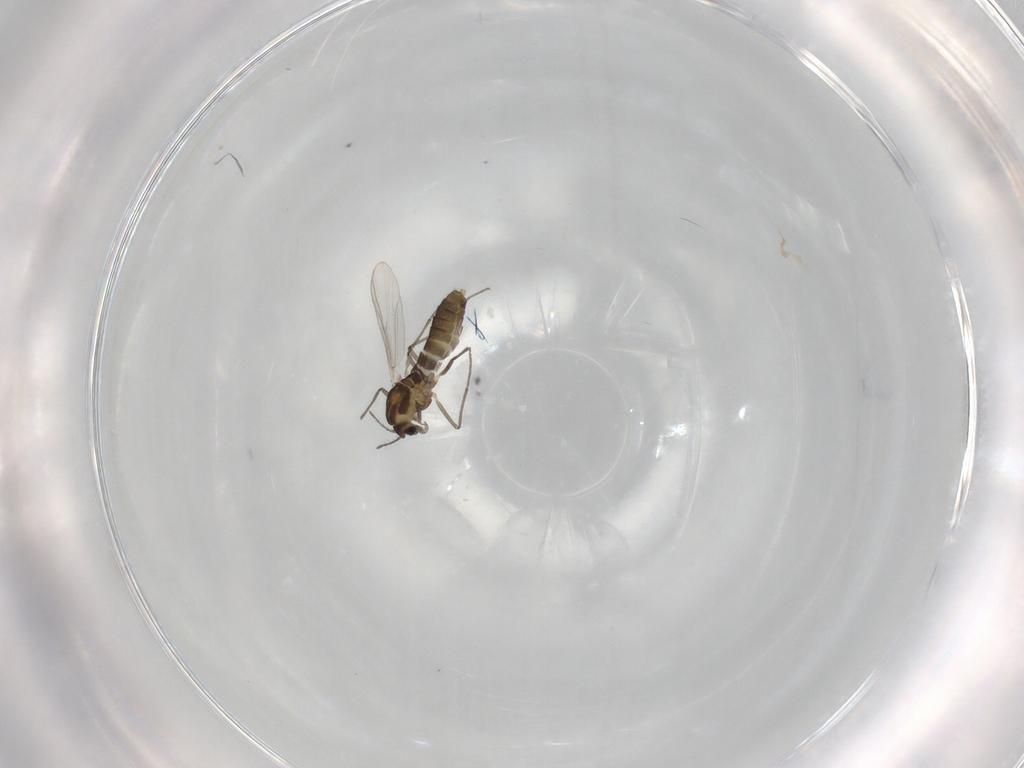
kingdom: Animalia
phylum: Arthropoda
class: Insecta
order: Diptera
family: Chironomidae
